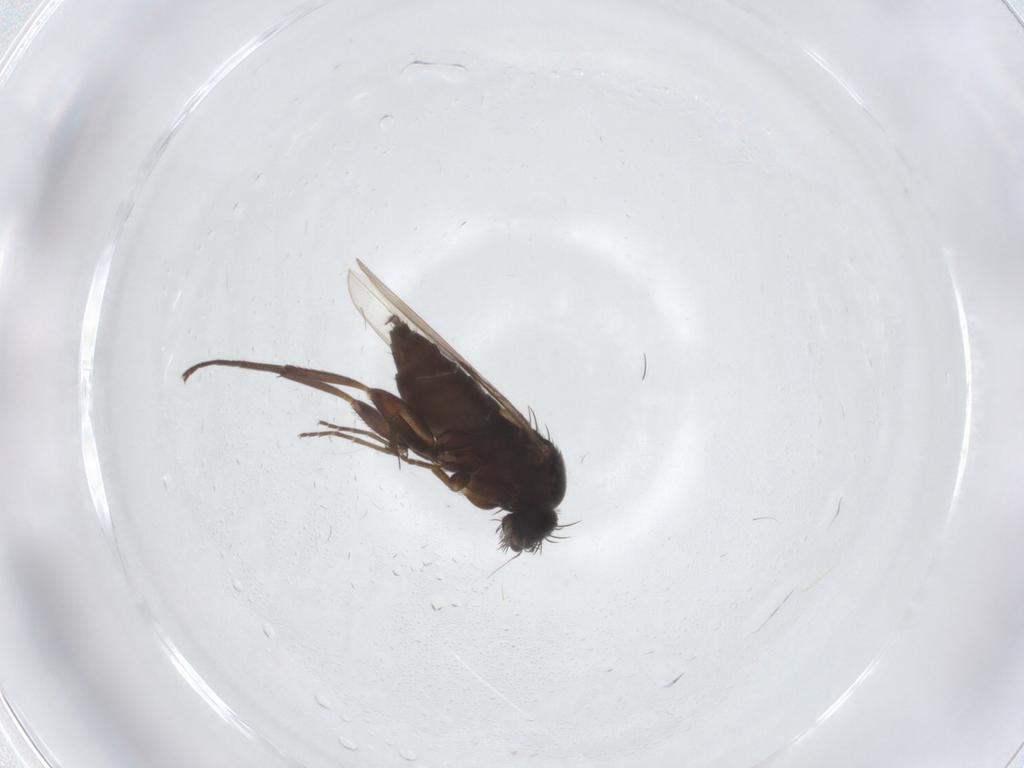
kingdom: Animalia
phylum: Arthropoda
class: Insecta
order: Diptera
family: Phoridae
